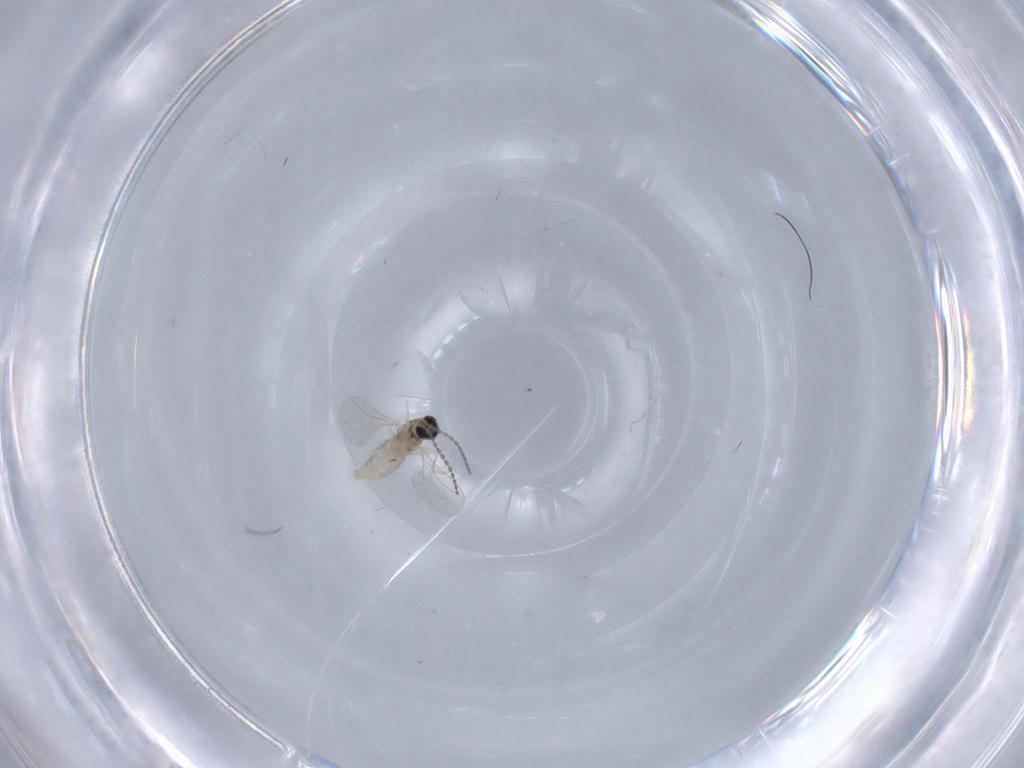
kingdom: Animalia
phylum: Arthropoda
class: Insecta
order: Diptera
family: Cecidomyiidae
